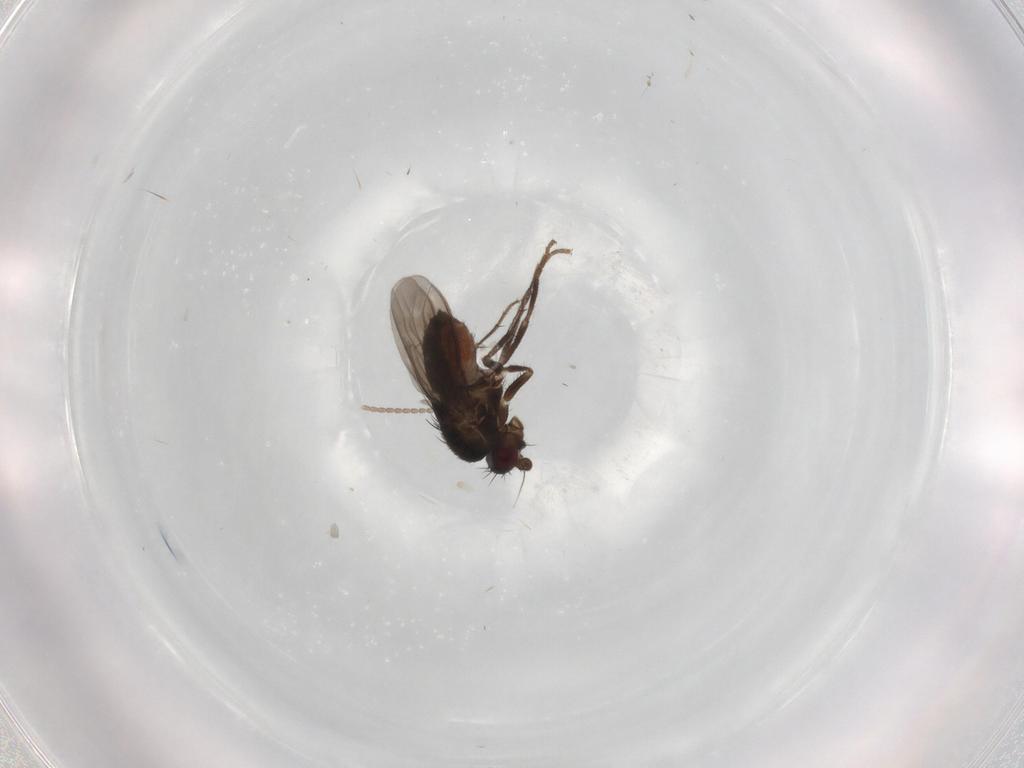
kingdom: Animalia
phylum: Arthropoda
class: Insecta
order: Diptera
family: Cecidomyiidae
